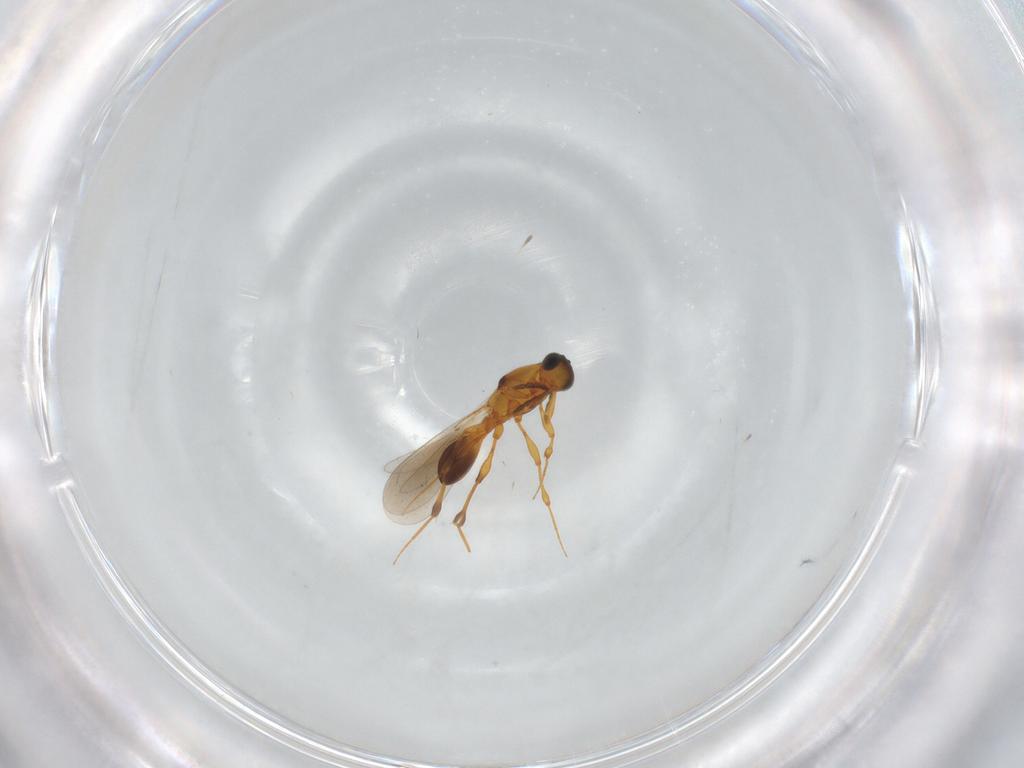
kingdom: Animalia
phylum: Arthropoda
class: Insecta
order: Hymenoptera
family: Platygastridae
